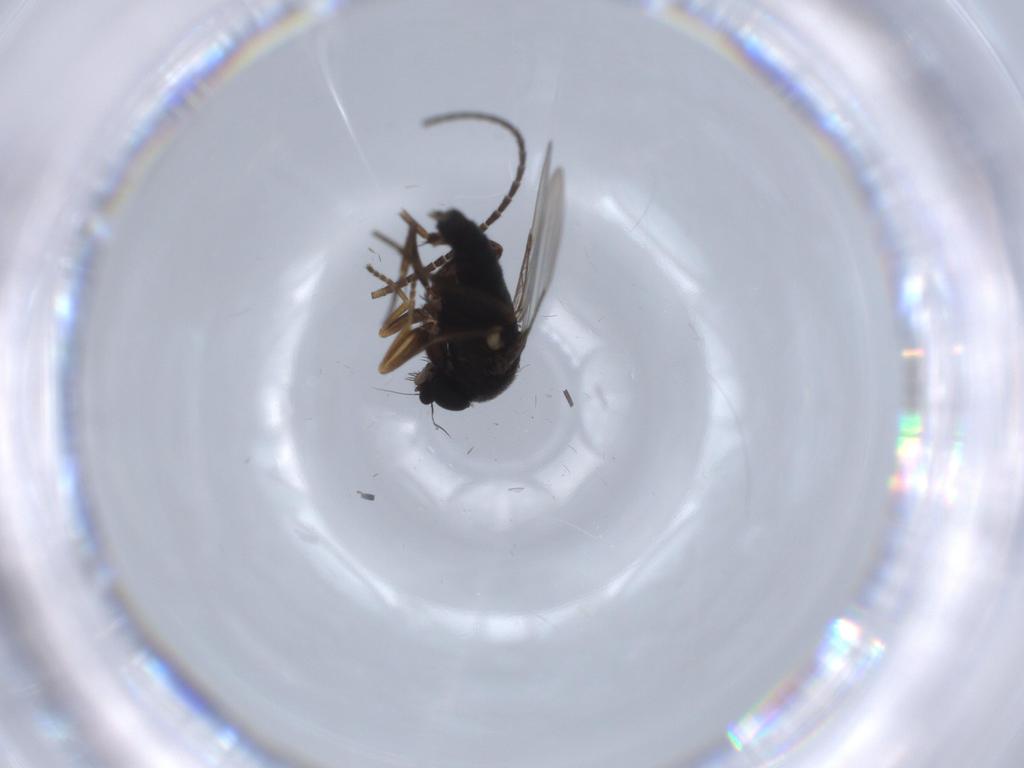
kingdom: Animalia
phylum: Arthropoda
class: Insecta
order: Diptera
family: Phoridae
